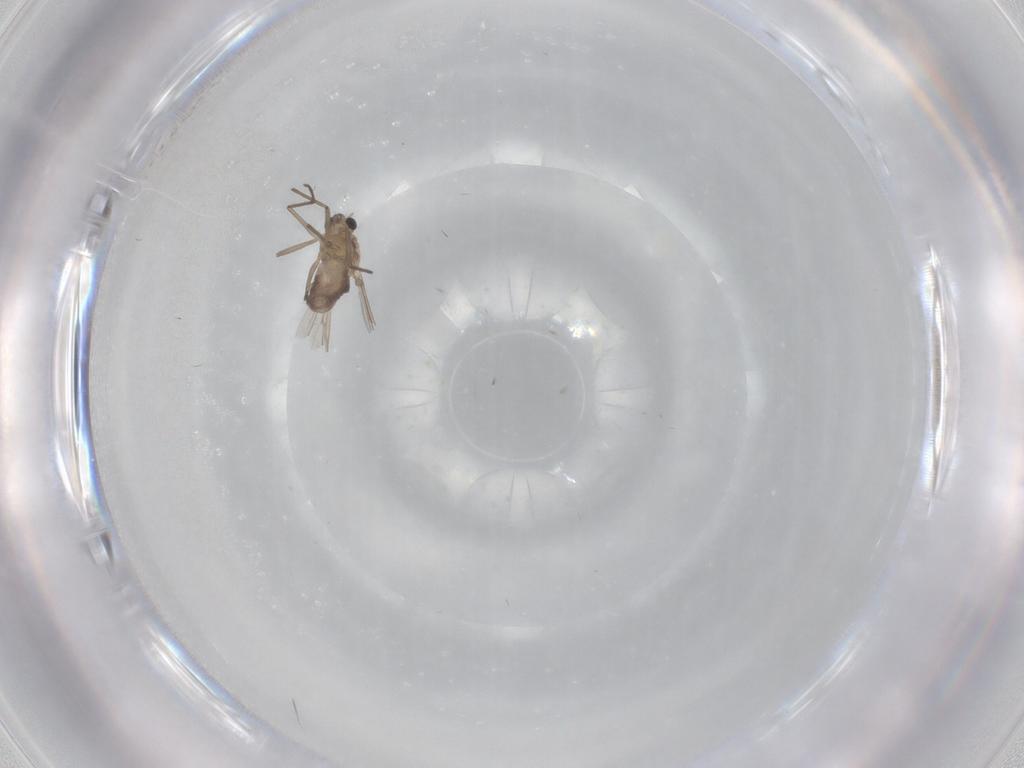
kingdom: Animalia
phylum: Arthropoda
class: Insecta
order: Diptera
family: Chironomidae
